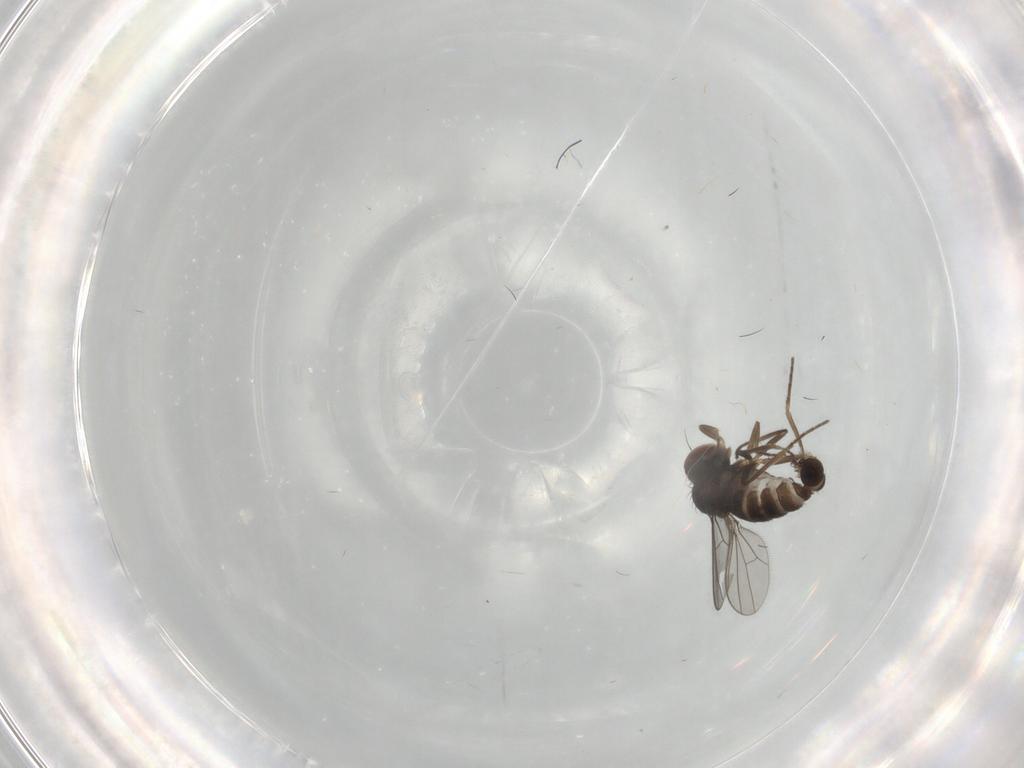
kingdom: Animalia
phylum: Arthropoda
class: Insecta
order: Diptera
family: Dolichopodidae
